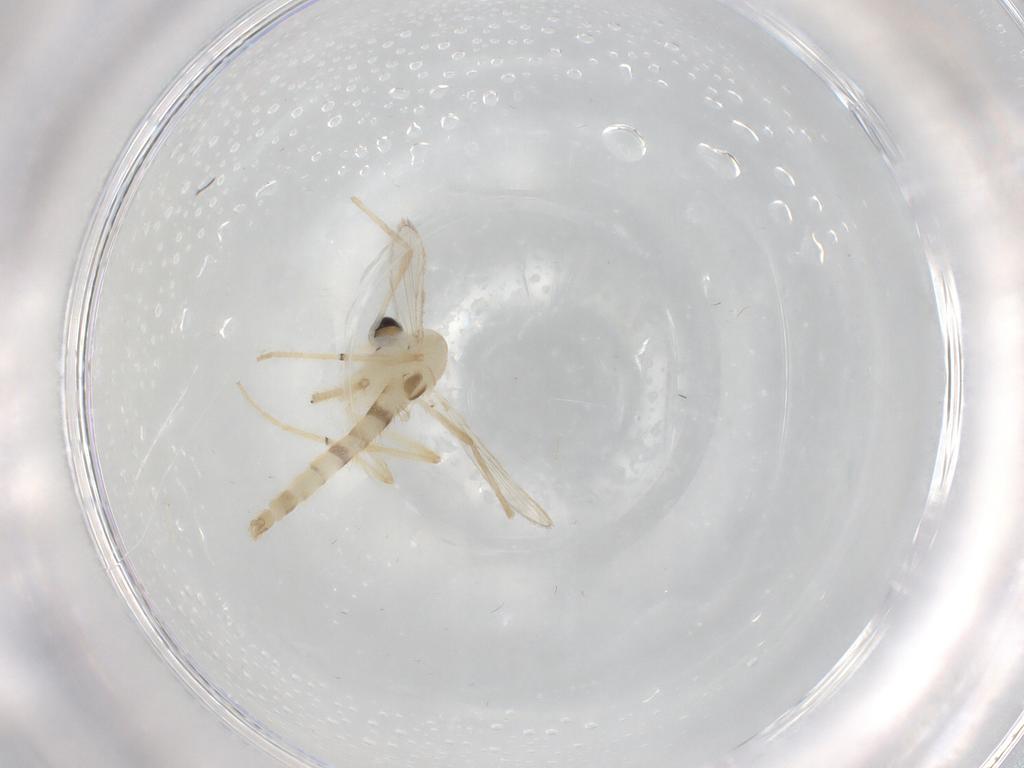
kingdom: Animalia
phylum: Arthropoda
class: Insecta
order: Diptera
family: Chironomidae
